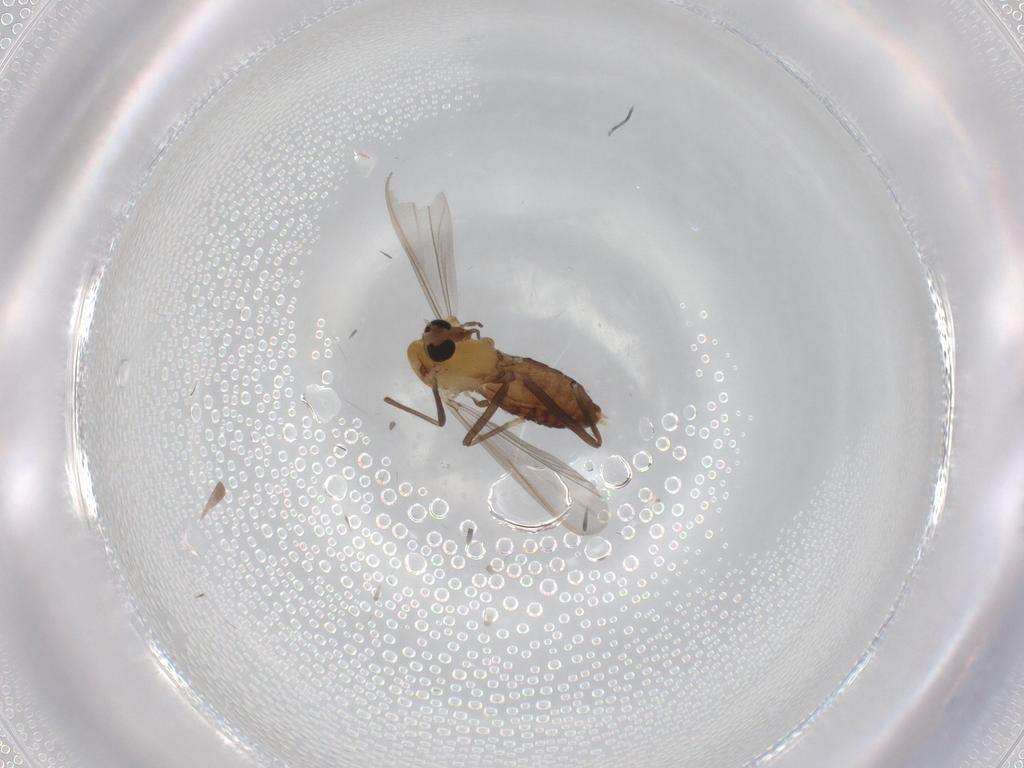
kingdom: Animalia
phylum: Arthropoda
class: Insecta
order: Diptera
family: Chironomidae
